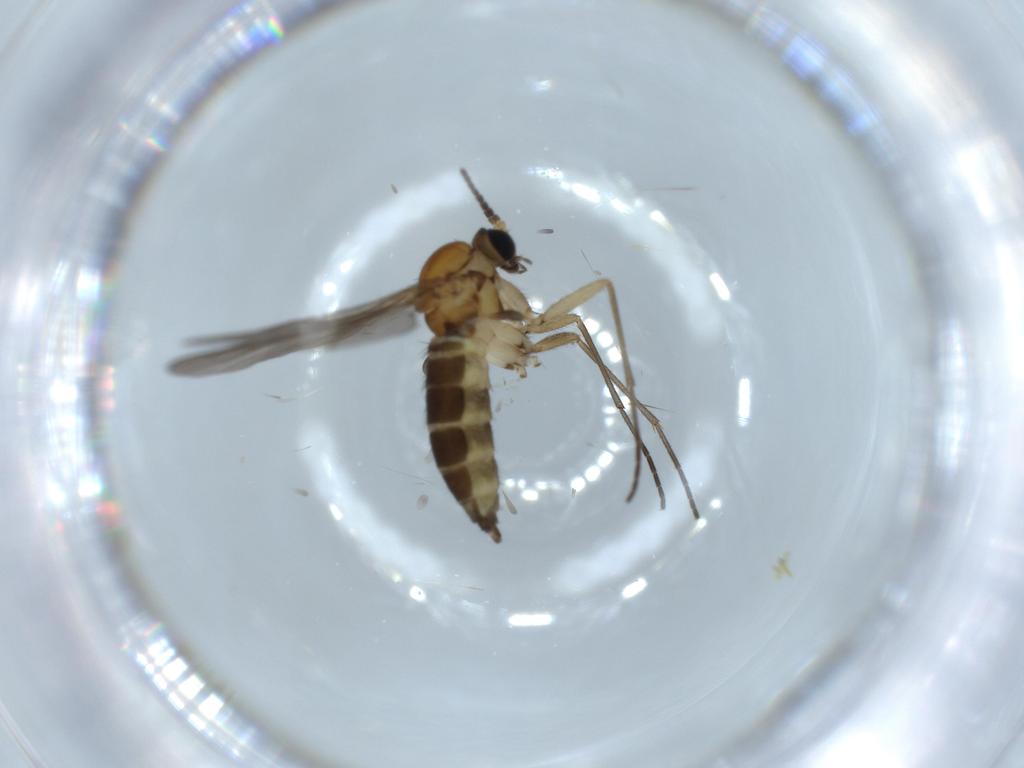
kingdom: Animalia
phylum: Arthropoda
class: Insecta
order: Diptera
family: Sciaridae
